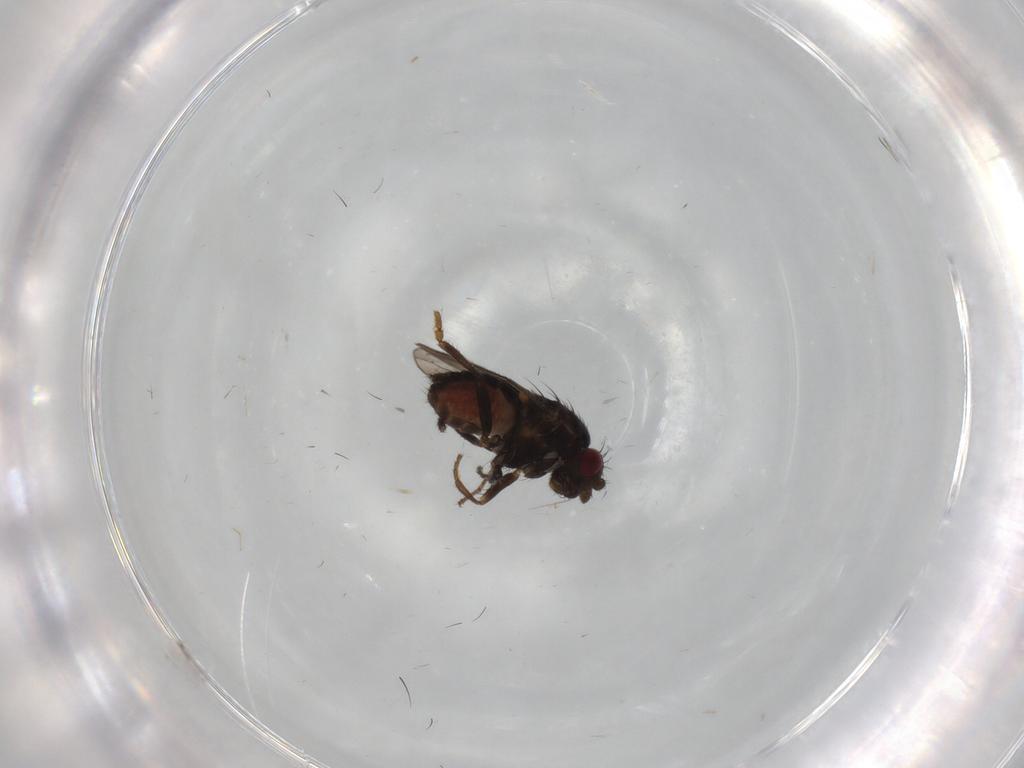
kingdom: Animalia
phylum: Arthropoda
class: Insecta
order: Diptera
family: Sphaeroceridae
